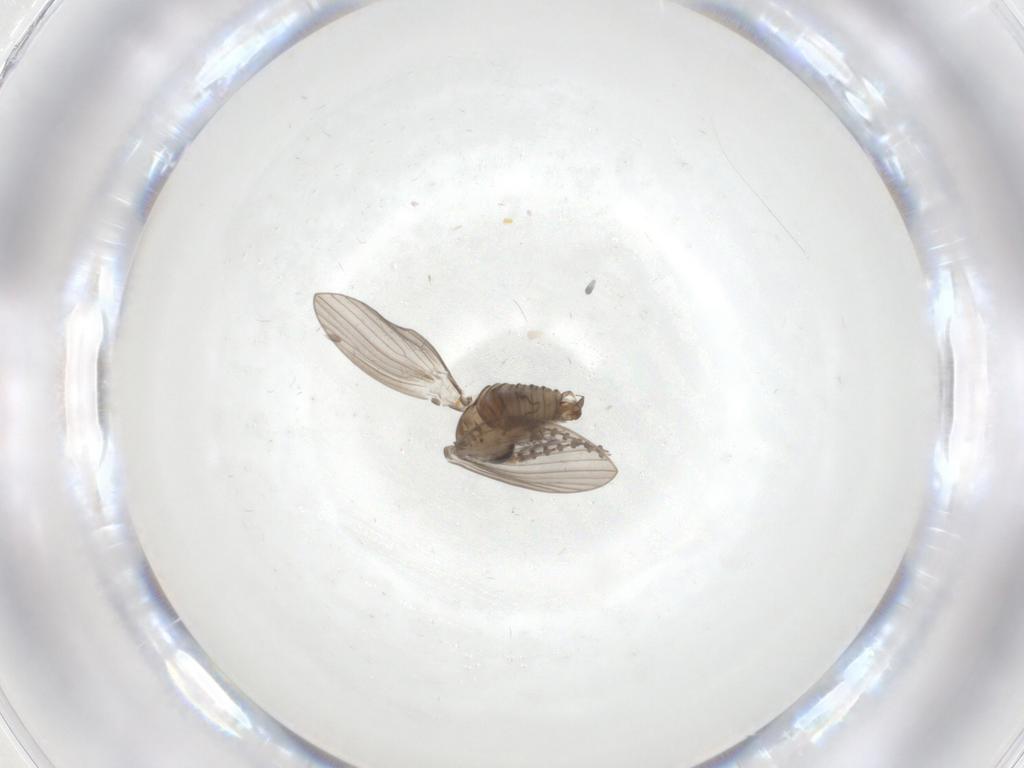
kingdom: Animalia
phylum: Arthropoda
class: Insecta
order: Diptera
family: Psychodidae
